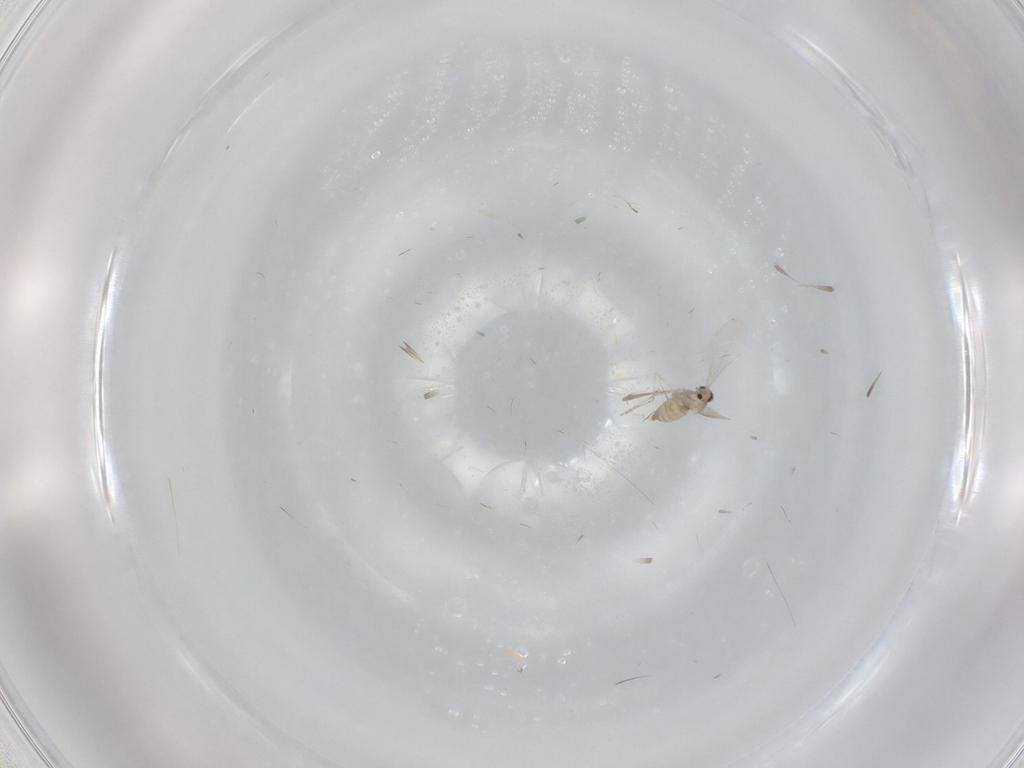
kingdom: Animalia
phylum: Arthropoda
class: Insecta
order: Diptera
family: Cecidomyiidae
